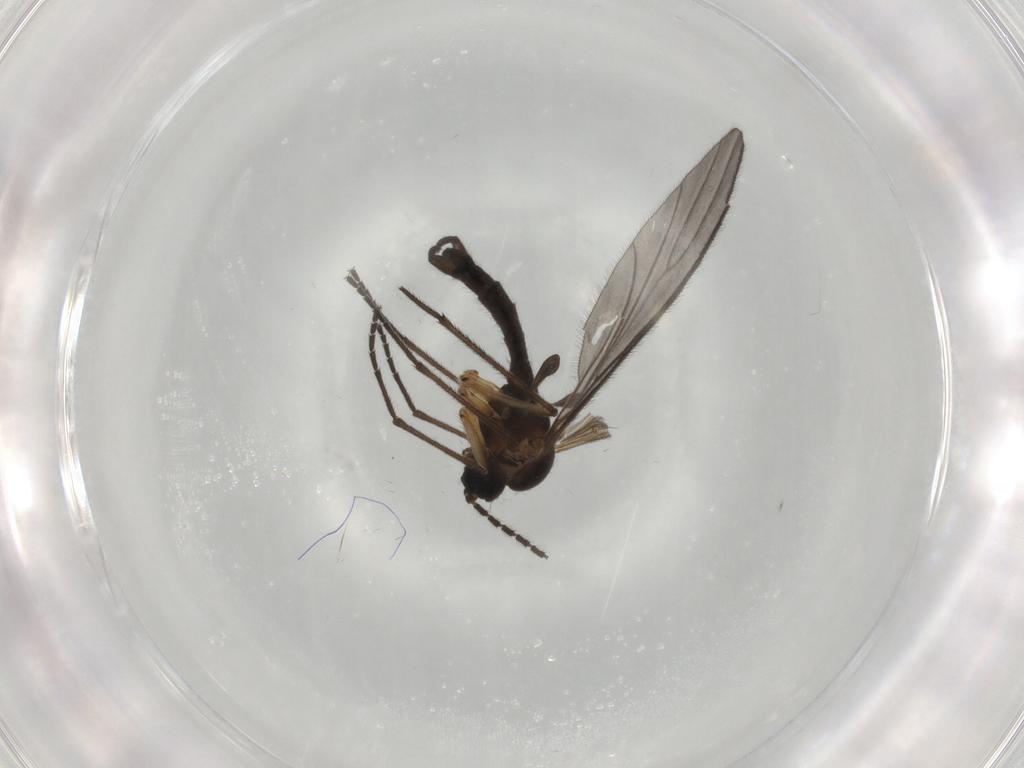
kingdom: Animalia
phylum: Arthropoda
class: Insecta
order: Diptera
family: Sciaridae
